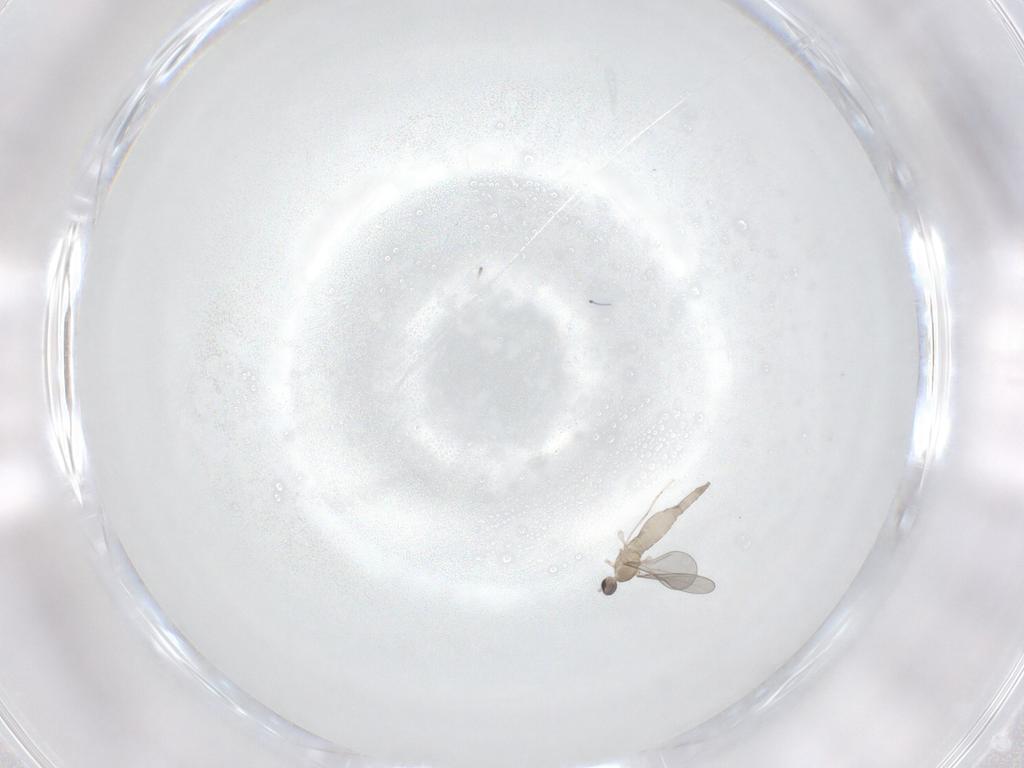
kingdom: Animalia
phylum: Arthropoda
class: Insecta
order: Diptera
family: Cecidomyiidae
